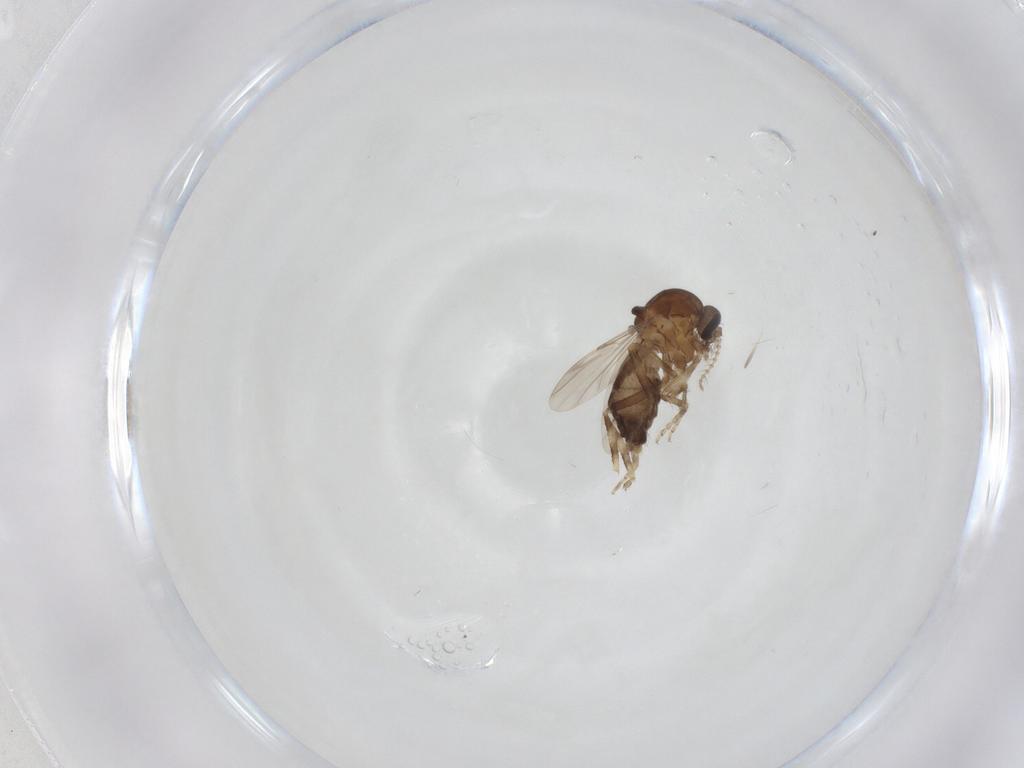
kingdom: Animalia
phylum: Arthropoda
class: Insecta
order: Diptera
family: Ceratopogonidae
